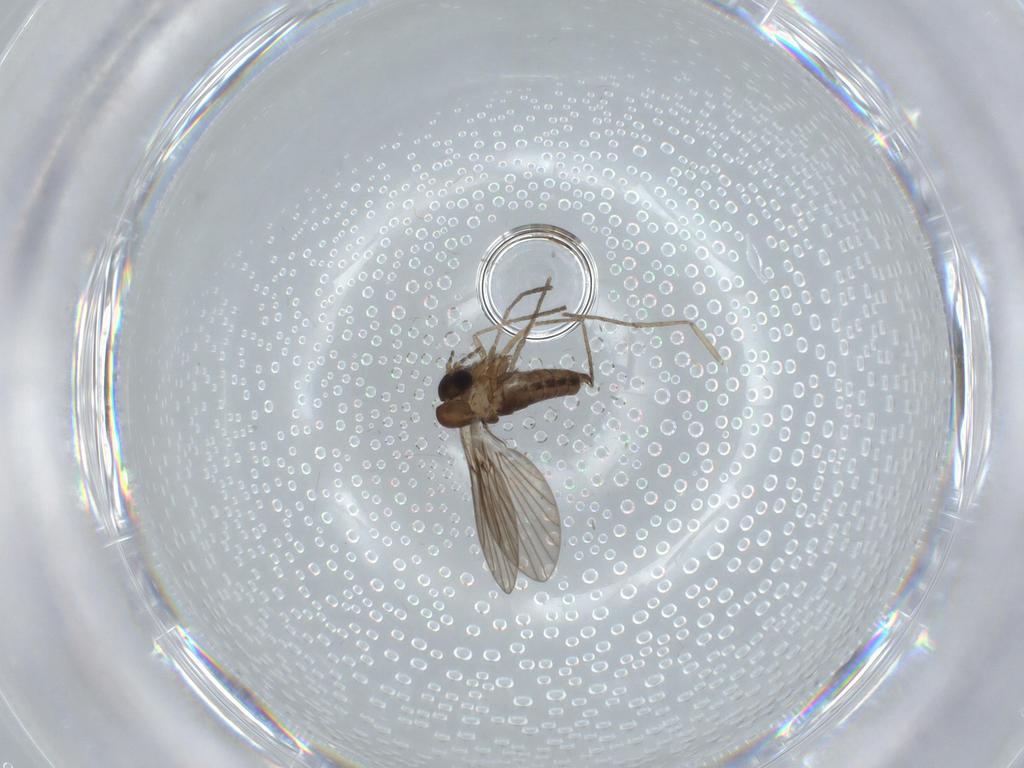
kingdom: Animalia
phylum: Arthropoda
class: Insecta
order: Diptera
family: Psychodidae
